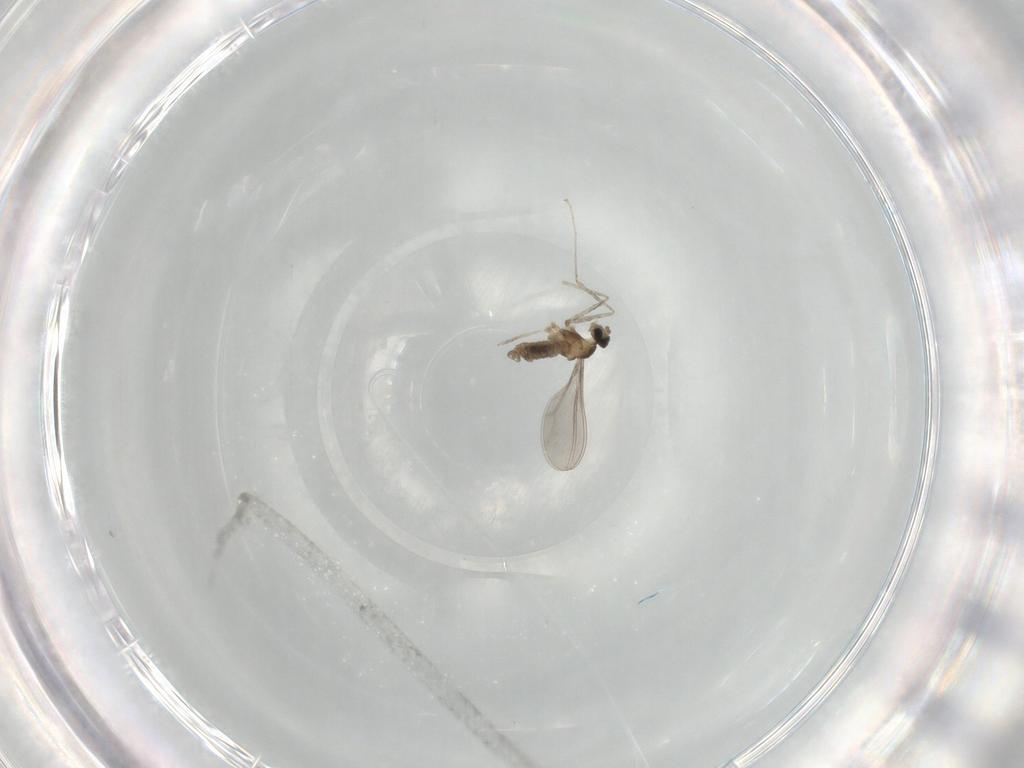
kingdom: Animalia
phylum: Arthropoda
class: Insecta
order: Diptera
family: Cecidomyiidae
